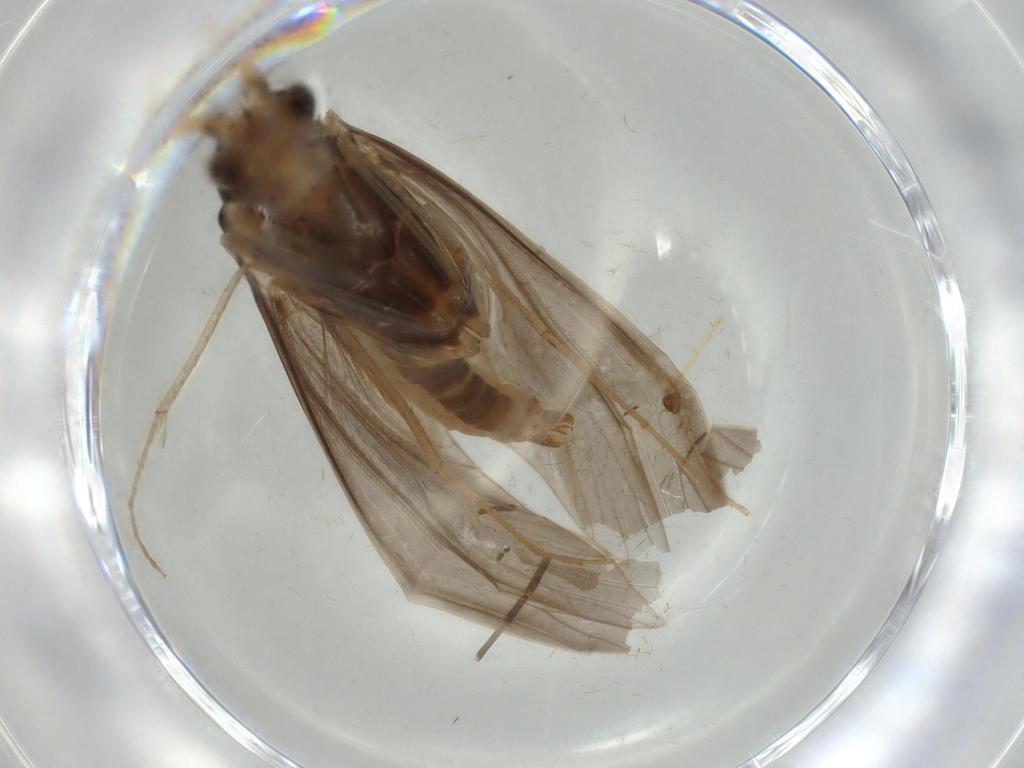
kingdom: Animalia
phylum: Arthropoda
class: Insecta
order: Trichoptera
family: Leptoceridae
